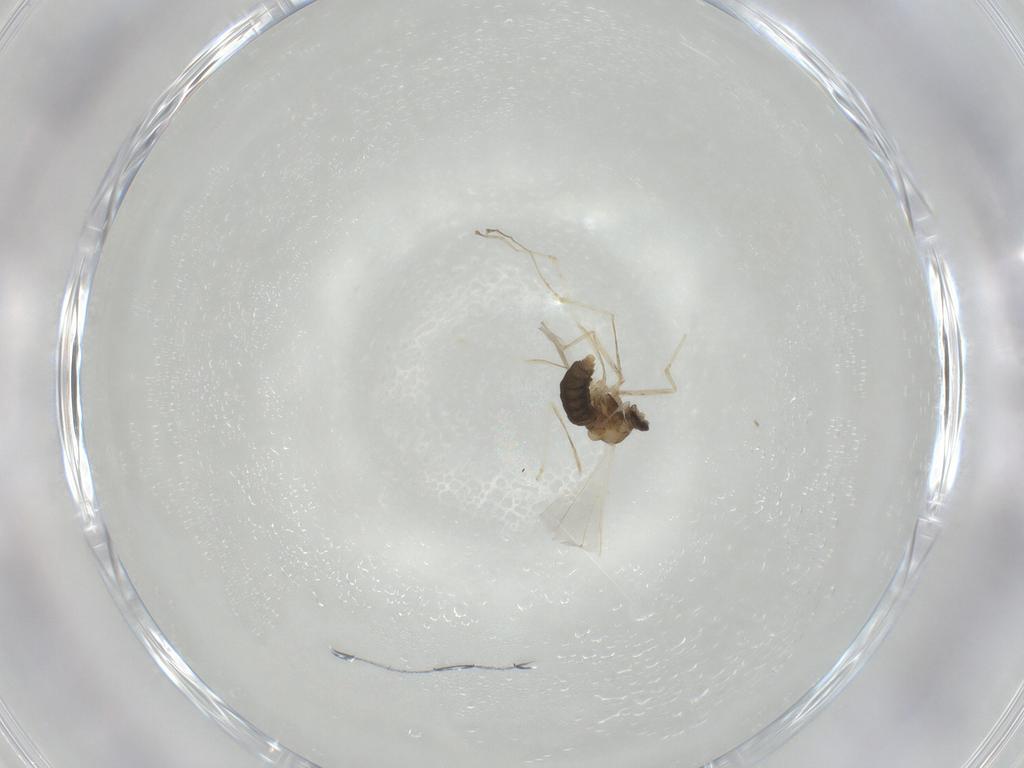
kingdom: Animalia
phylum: Arthropoda
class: Insecta
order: Diptera
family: Cecidomyiidae
